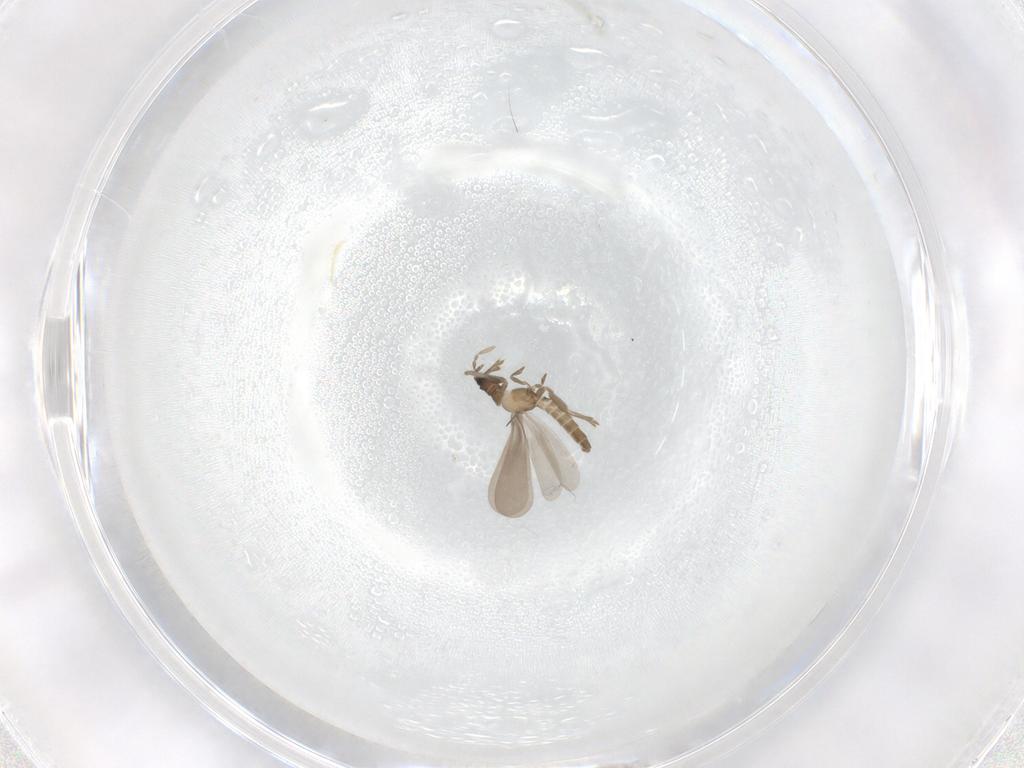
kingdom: Animalia
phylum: Arthropoda
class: Insecta
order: Hemiptera
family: Enicocephalidae
